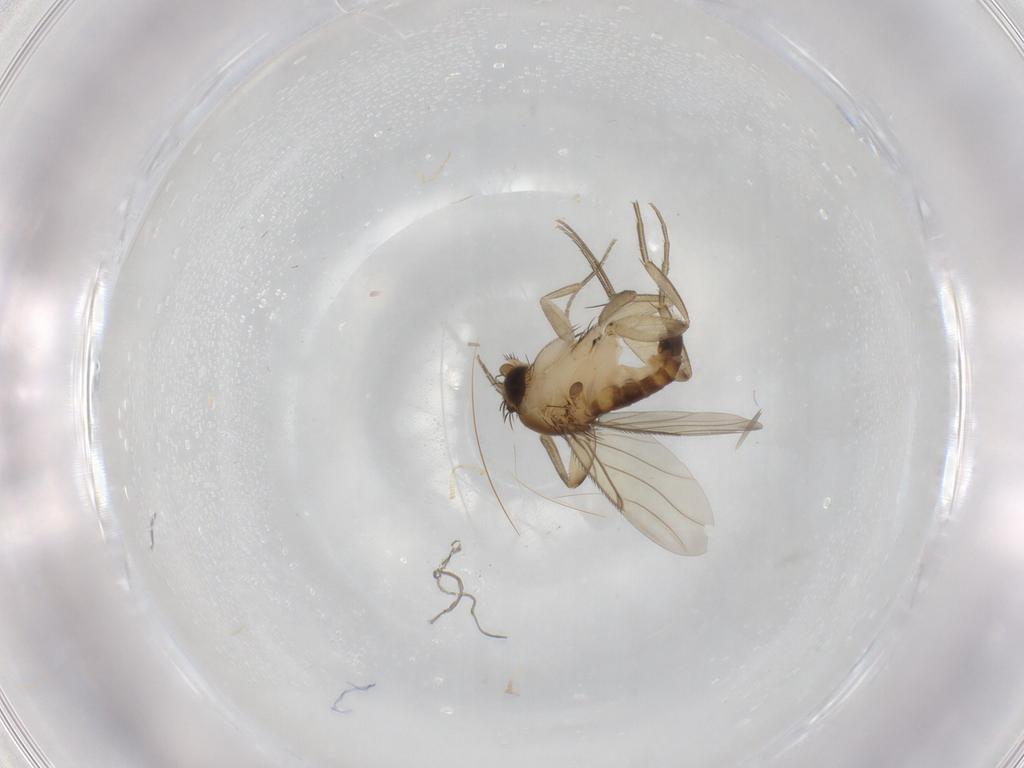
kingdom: Animalia
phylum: Arthropoda
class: Insecta
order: Diptera
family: Phoridae
